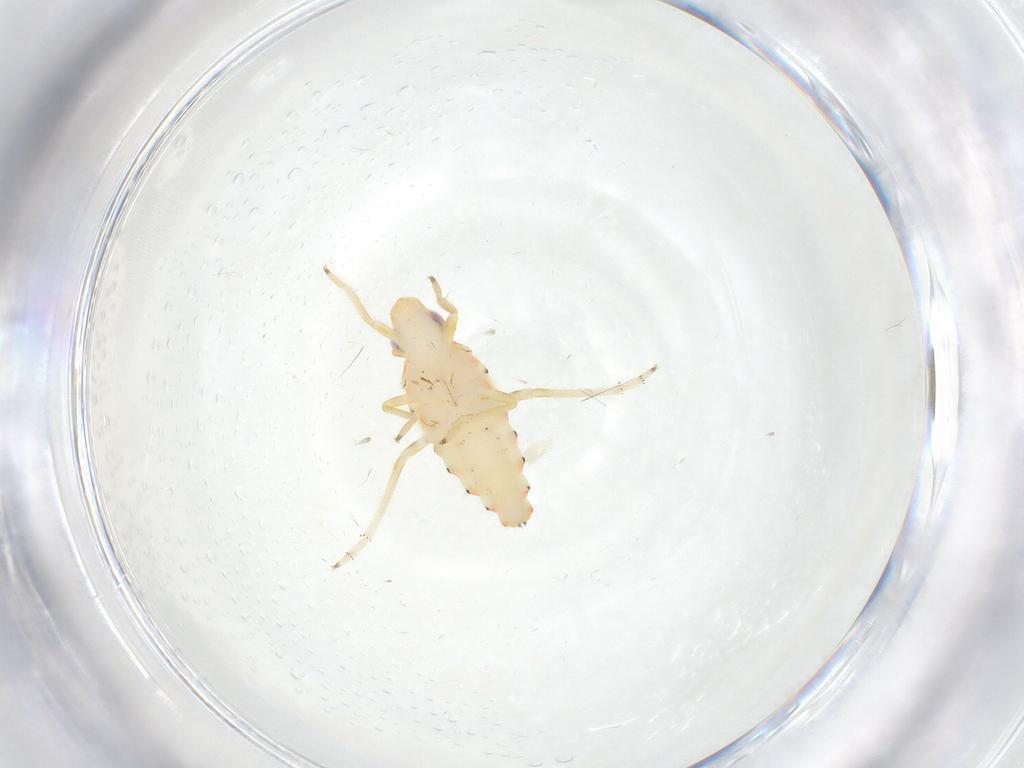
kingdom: Animalia
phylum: Arthropoda
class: Insecta
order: Hemiptera
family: Tropiduchidae
